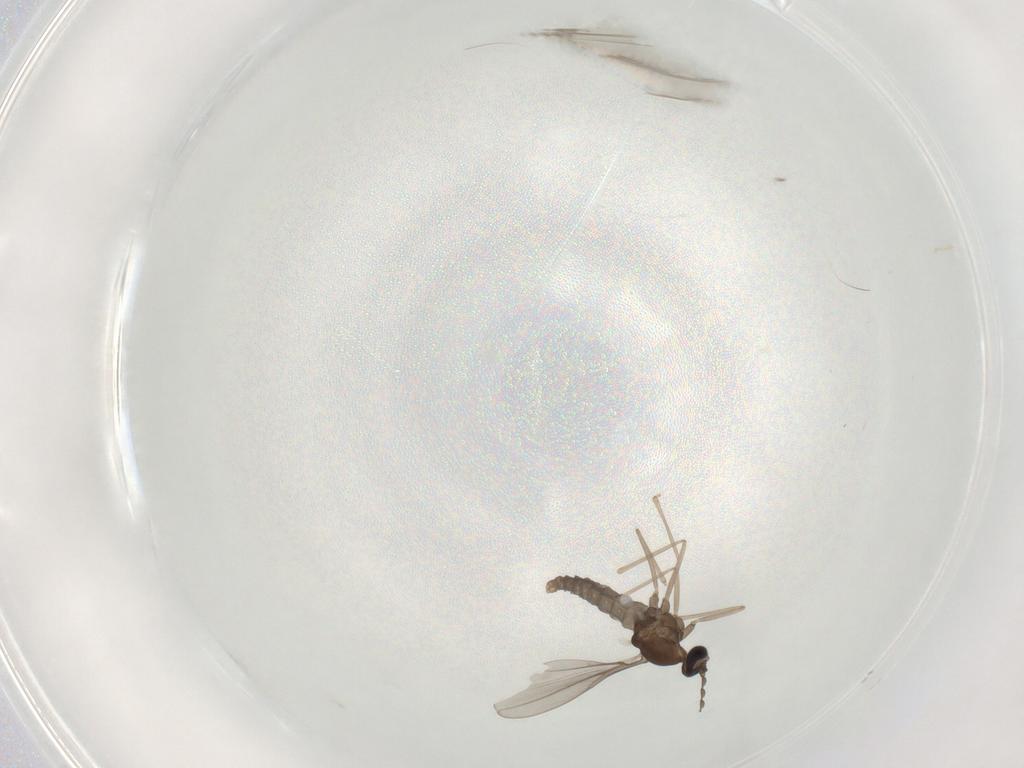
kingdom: Animalia
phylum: Arthropoda
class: Insecta
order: Diptera
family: Cecidomyiidae
